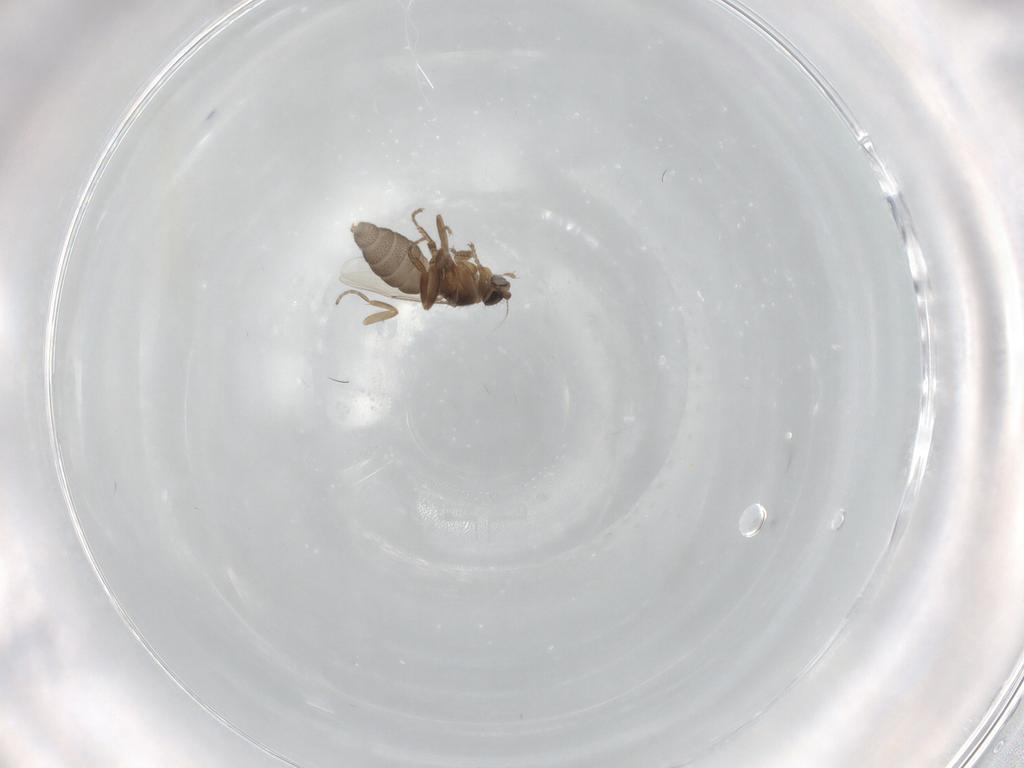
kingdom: Animalia
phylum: Arthropoda
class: Insecta
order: Diptera
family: Sciaridae
